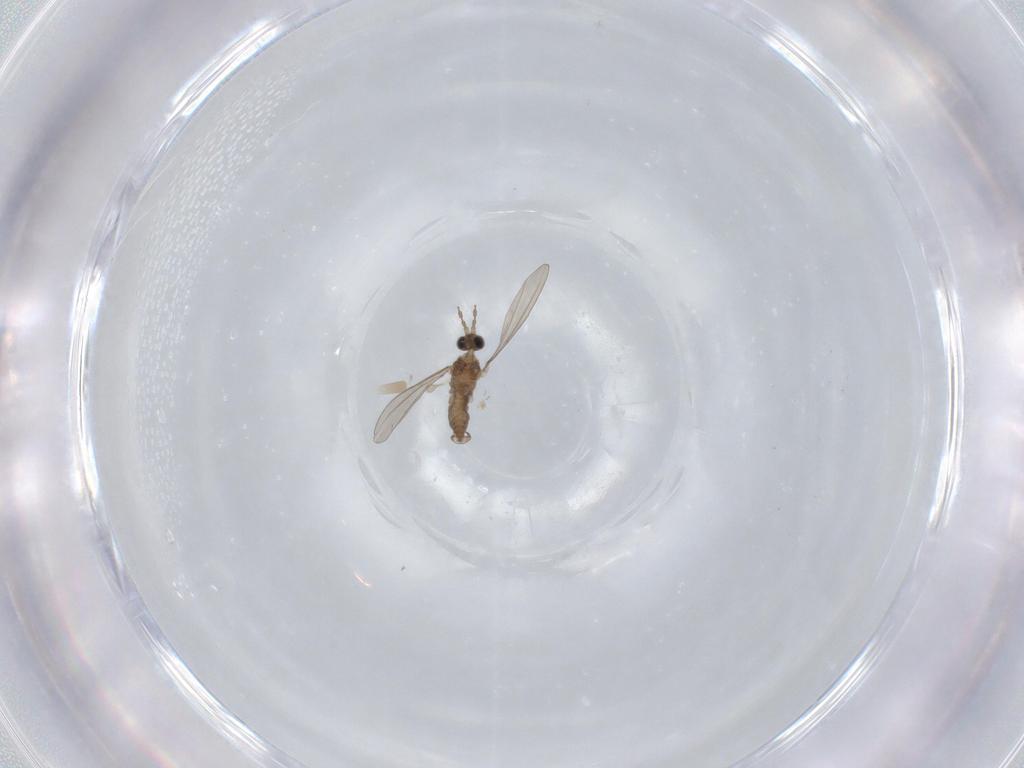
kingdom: Animalia
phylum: Arthropoda
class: Insecta
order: Diptera
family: Cecidomyiidae
